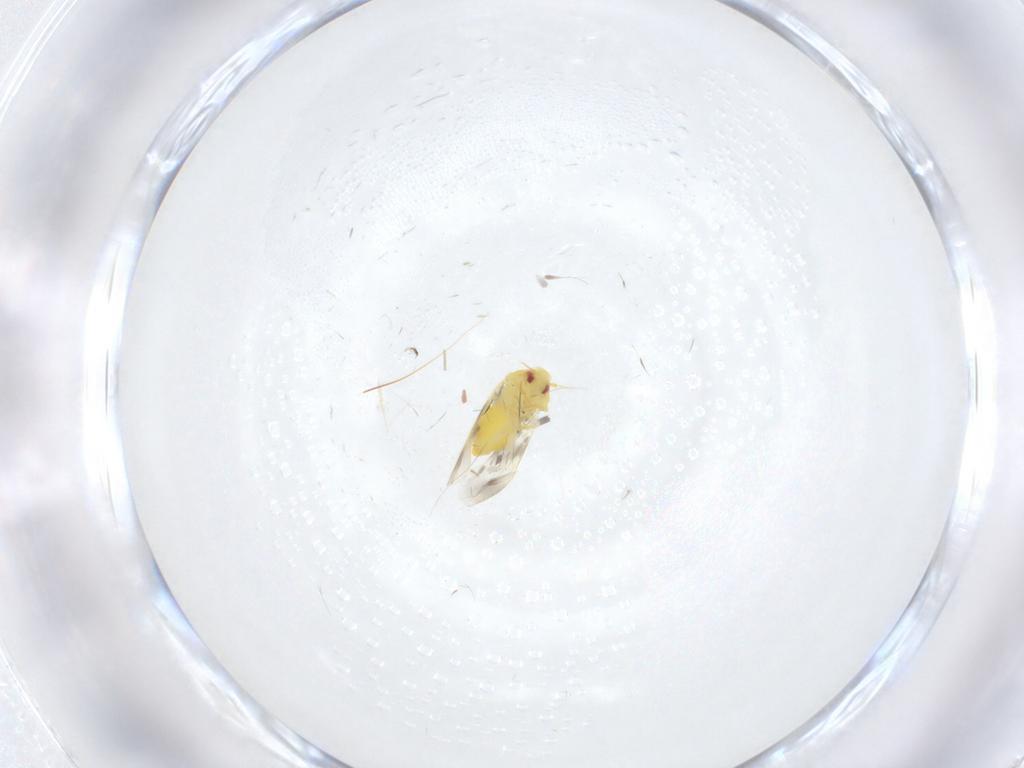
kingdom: Animalia
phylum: Arthropoda
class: Insecta
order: Hemiptera
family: Aleyrodidae
